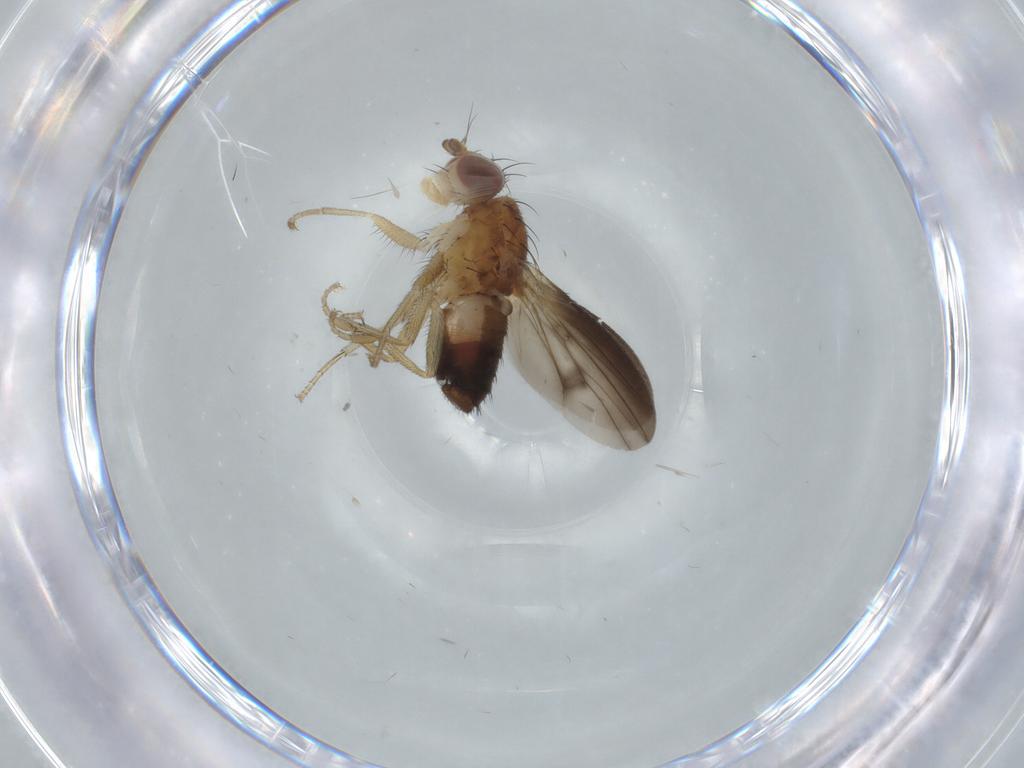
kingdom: Animalia
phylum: Arthropoda
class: Insecta
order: Diptera
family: Heleomyzidae
